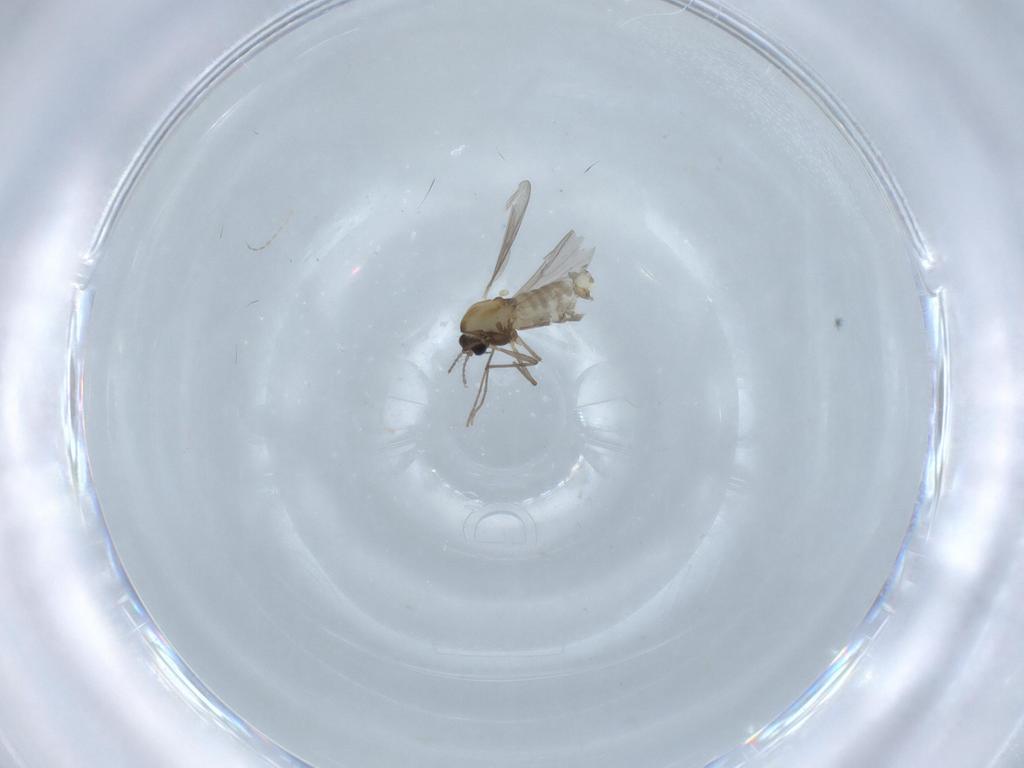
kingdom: Animalia
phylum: Arthropoda
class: Insecta
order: Diptera
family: Chironomidae
